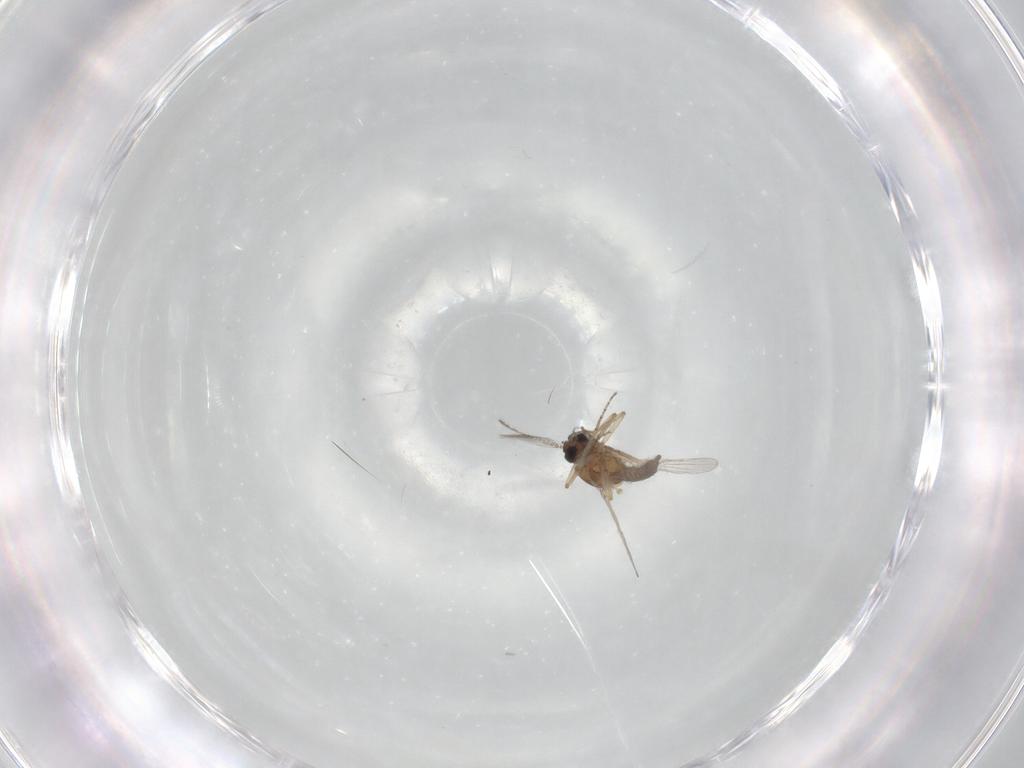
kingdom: Animalia
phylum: Arthropoda
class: Insecta
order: Diptera
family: Ceratopogonidae
